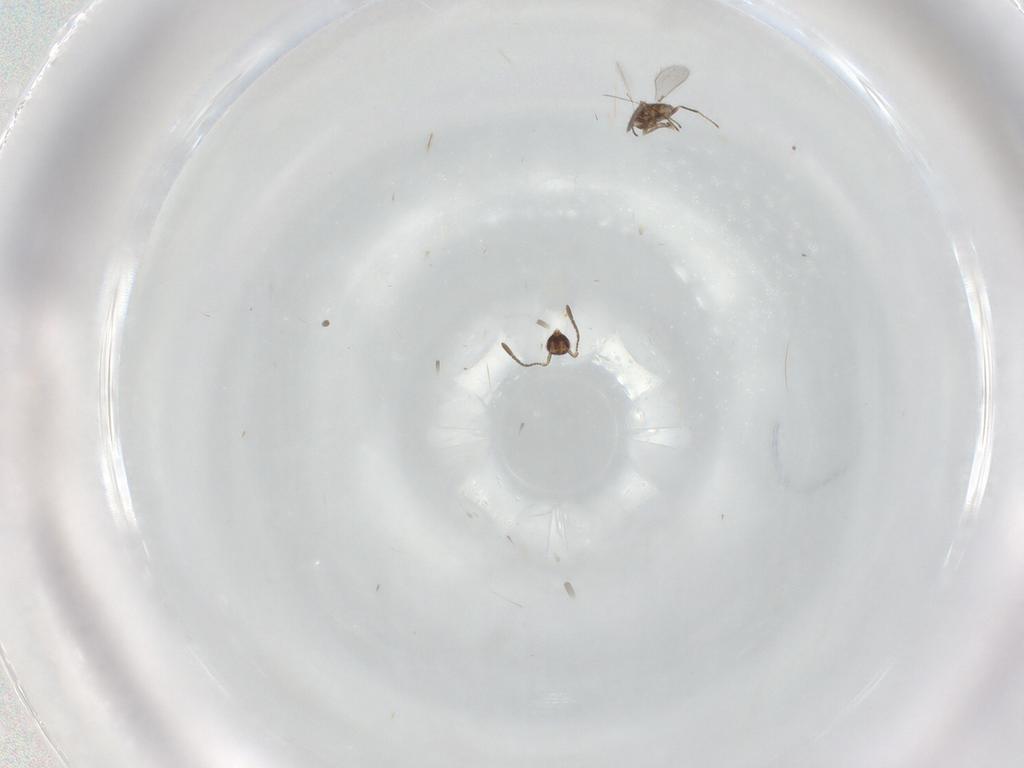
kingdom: Animalia
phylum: Arthropoda
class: Insecta
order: Hymenoptera
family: Mymaridae
